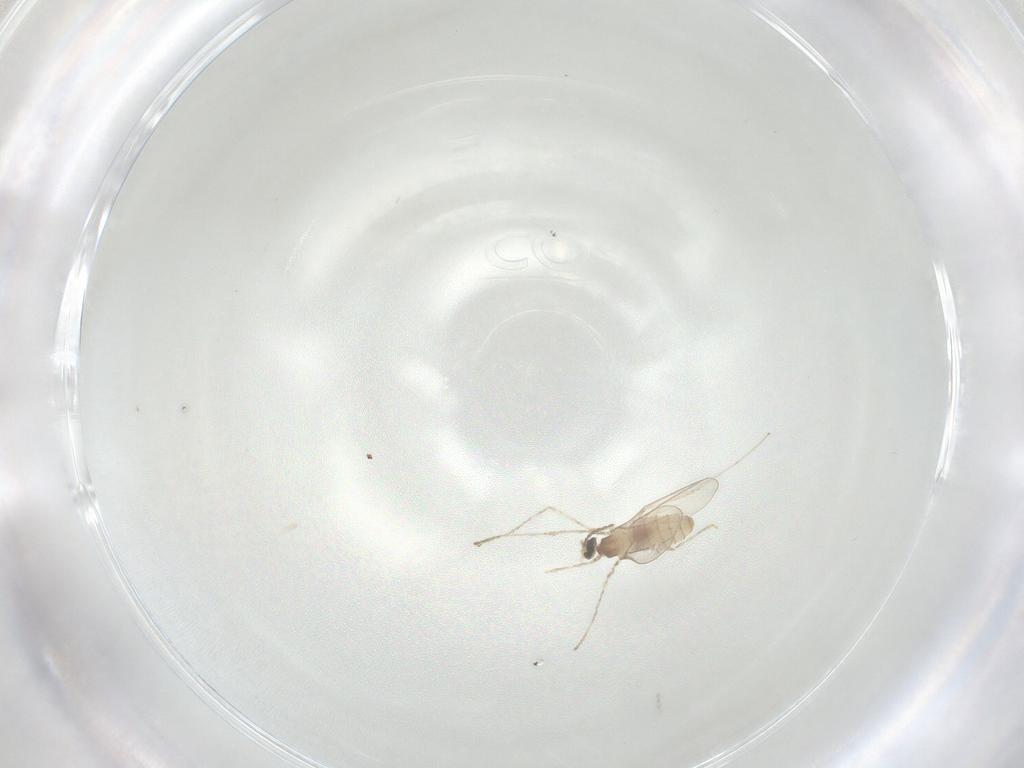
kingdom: Animalia
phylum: Arthropoda
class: Insecta
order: Diptera
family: Cecidomyiidae
